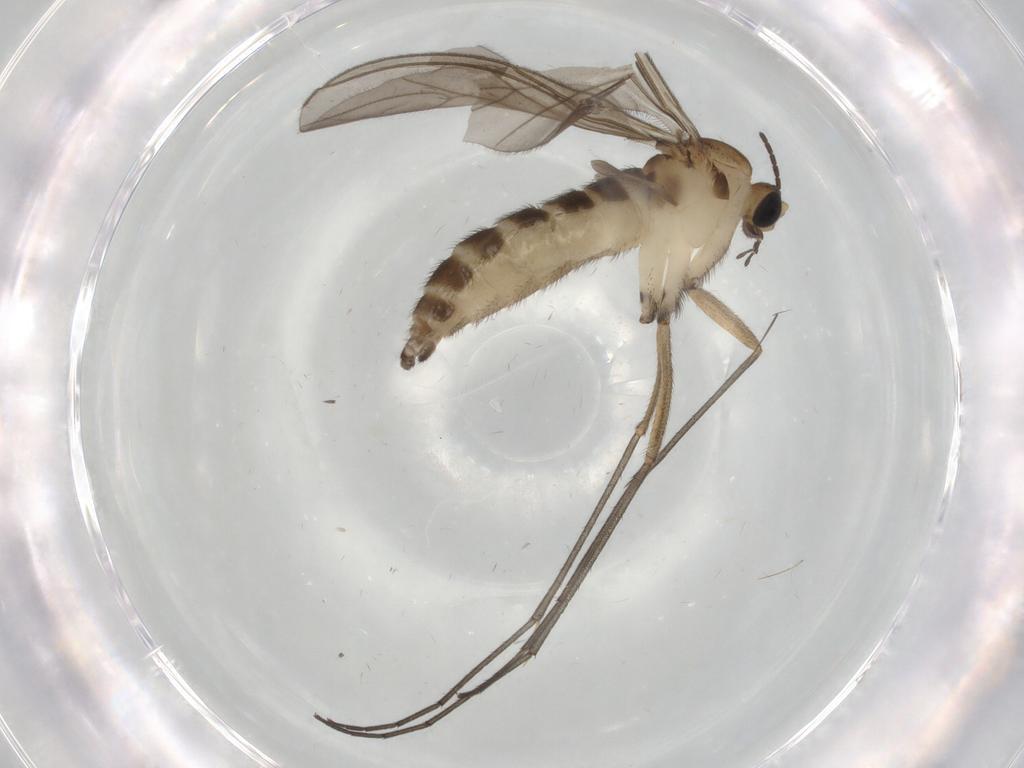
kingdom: Animalia
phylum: Arthropoda
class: Insecta
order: Diptera
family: Sciaridae
